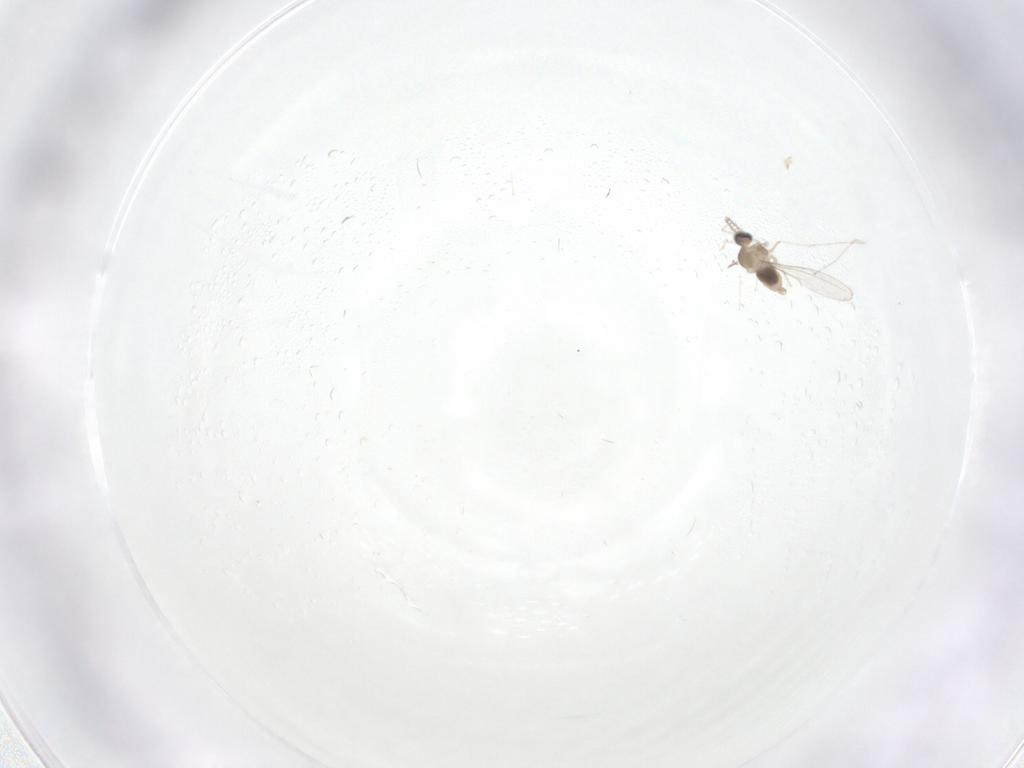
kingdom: Animalia
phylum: Arthropoda
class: Insecta
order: Diptera
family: Cecidomyiidae
